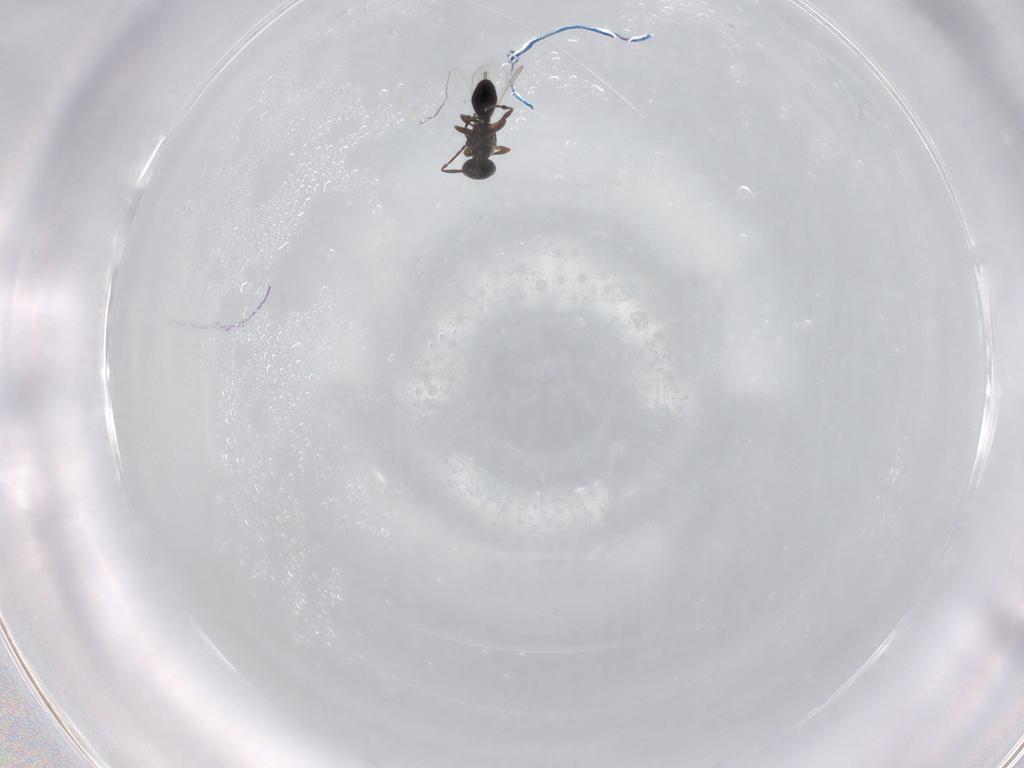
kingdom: Animalia
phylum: Arthropoda
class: Insecta
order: Hymenoptera
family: Platygastridae
